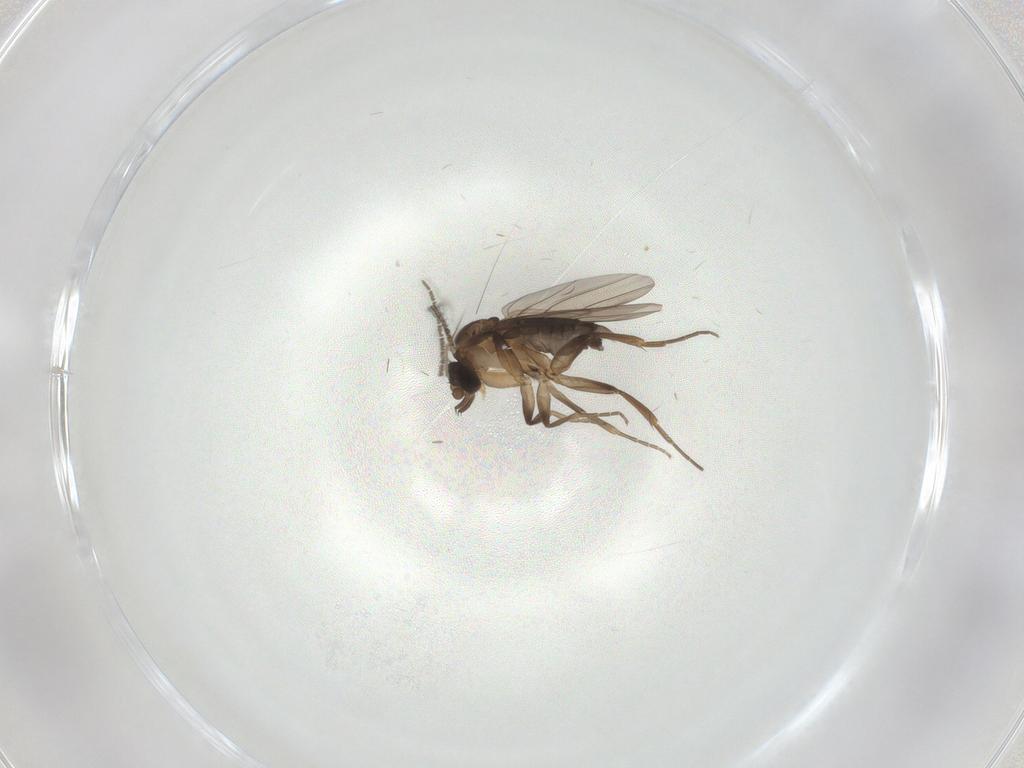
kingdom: Animalia
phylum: Arthropoda
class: Insecta
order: Diptera
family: Phoridae
